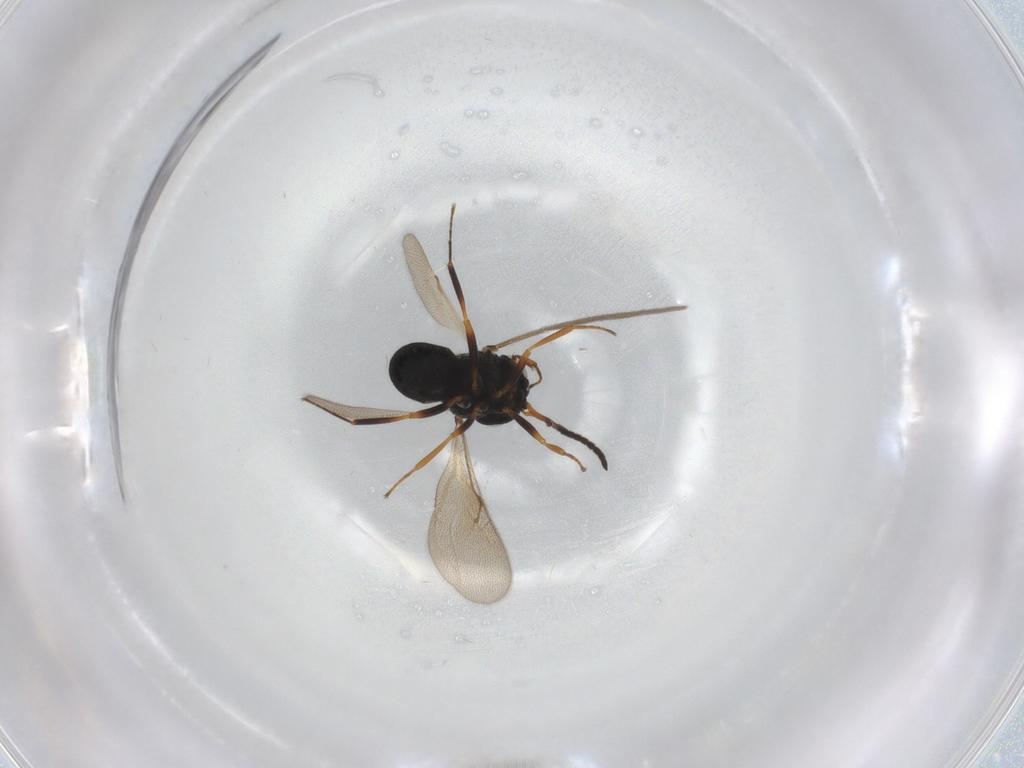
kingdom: Animalia
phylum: Arthropoda
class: Insecta
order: Hymenoptera
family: Scelionidae
